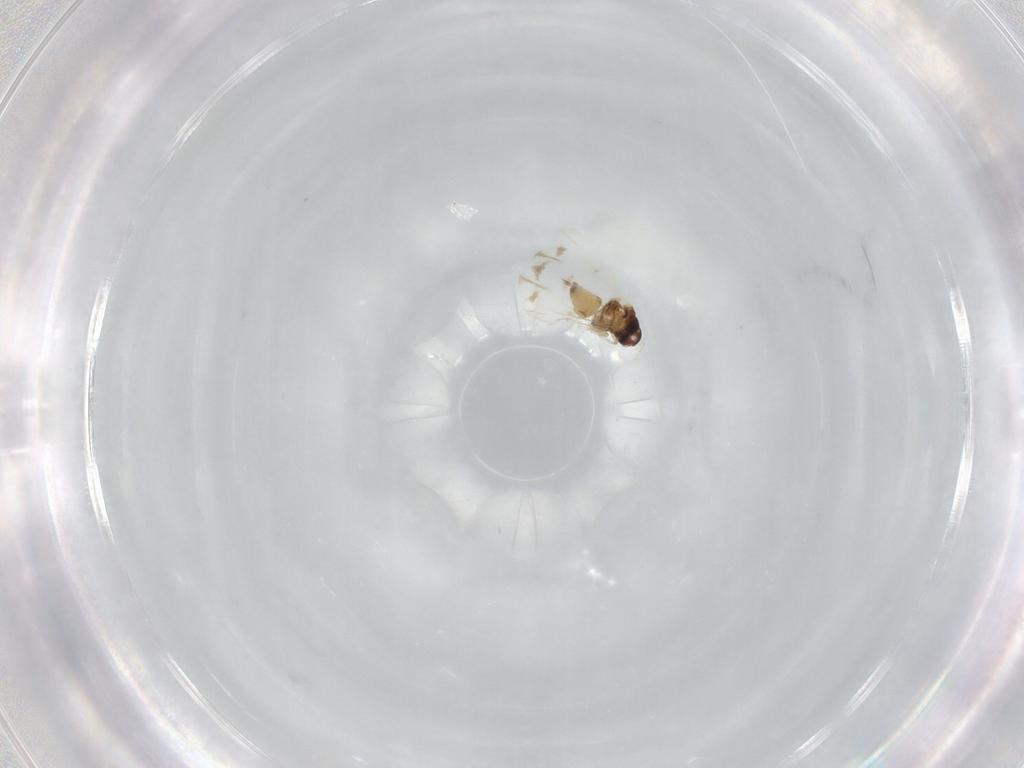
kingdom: Animalia
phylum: Arthropoda
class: Insecta
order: Hemiptera
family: Aleyrodidae
